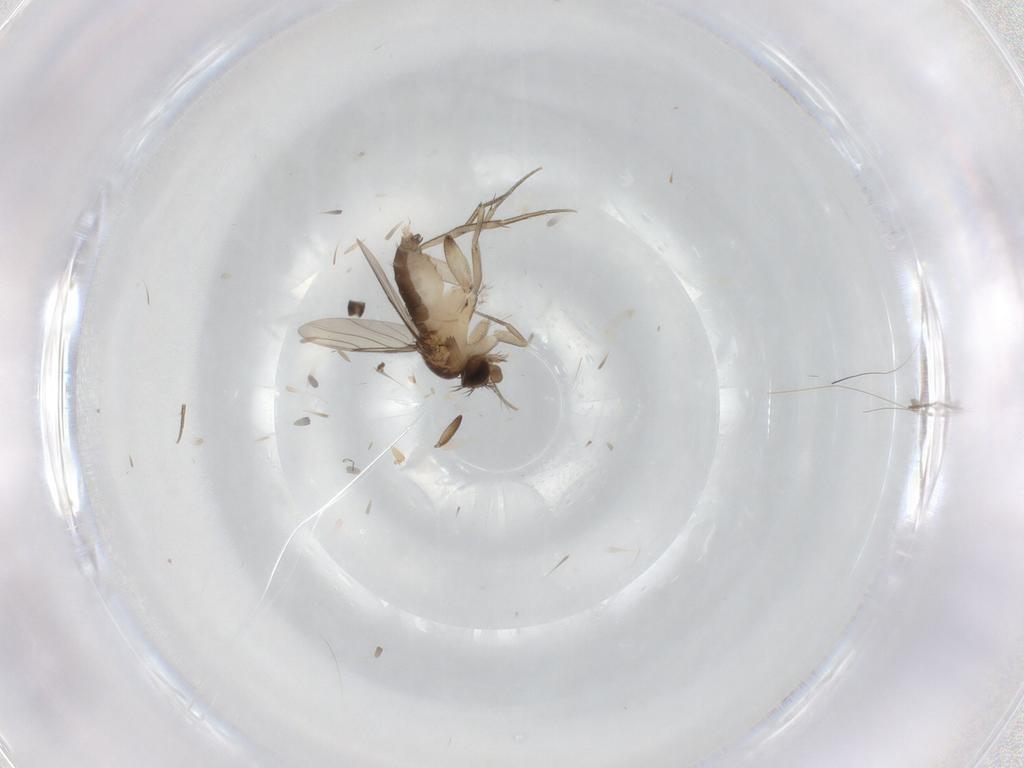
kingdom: Animalia
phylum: Arthropoda
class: Insecta
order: Diptera
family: Phoridae
